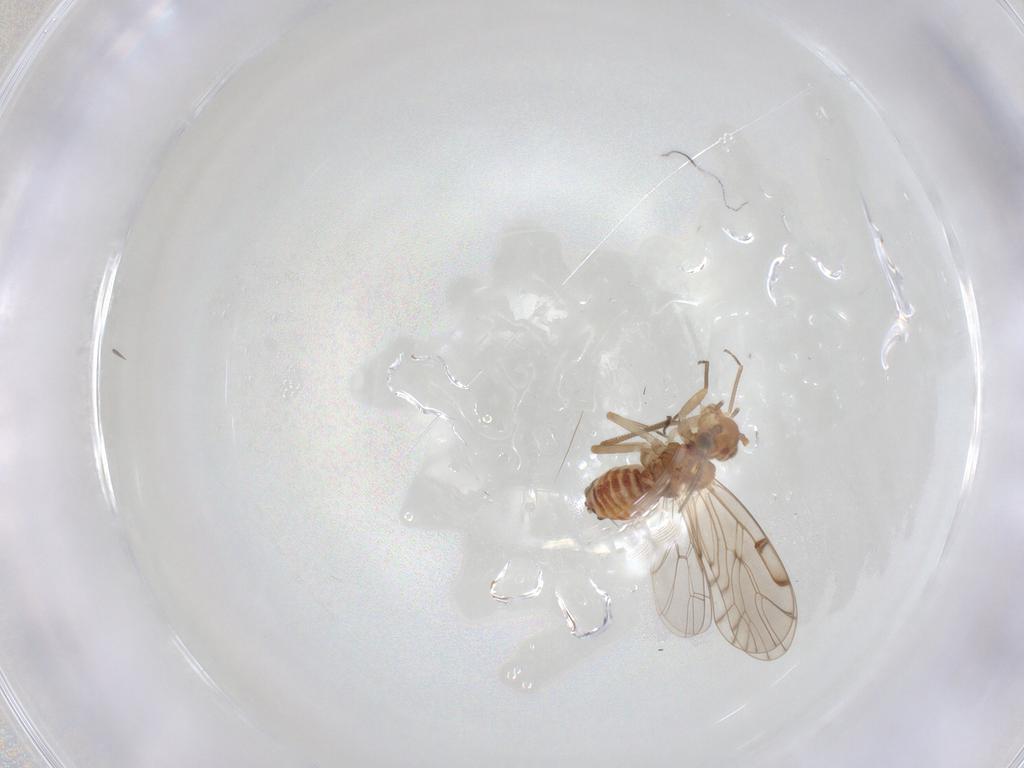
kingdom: Animalia
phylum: Arthropoda
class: Insecta
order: Diptera
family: Chironomidae
